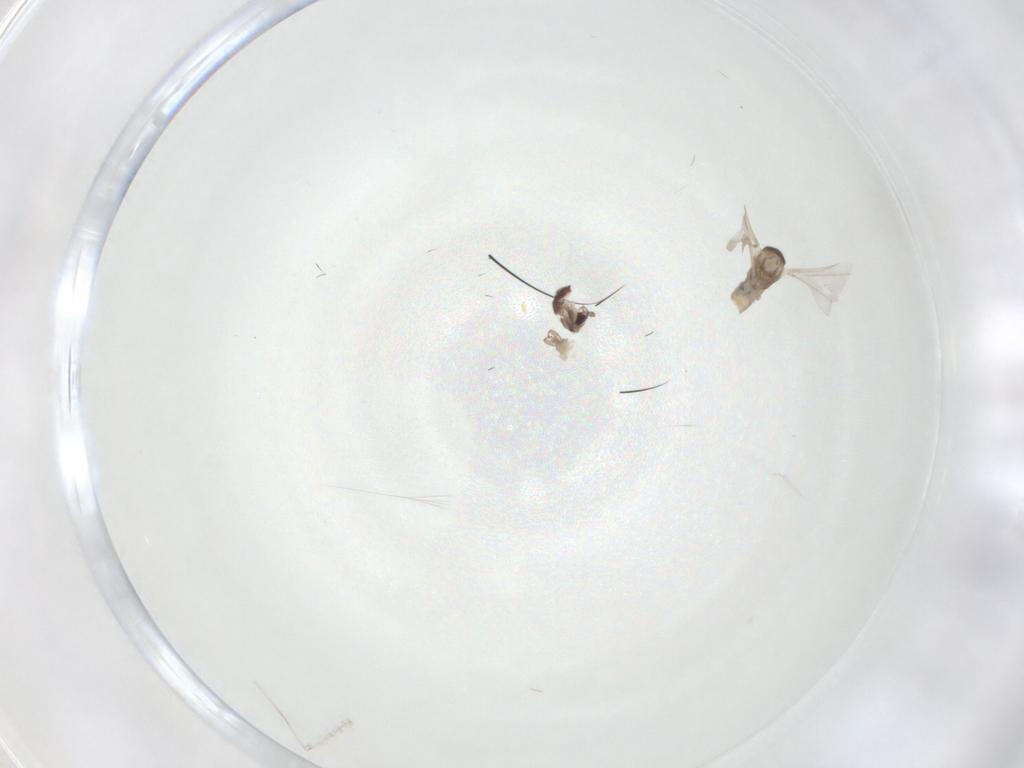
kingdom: Animalia
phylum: Arthropoda
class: Insecta
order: Diptera
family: Cecidomyiidae
